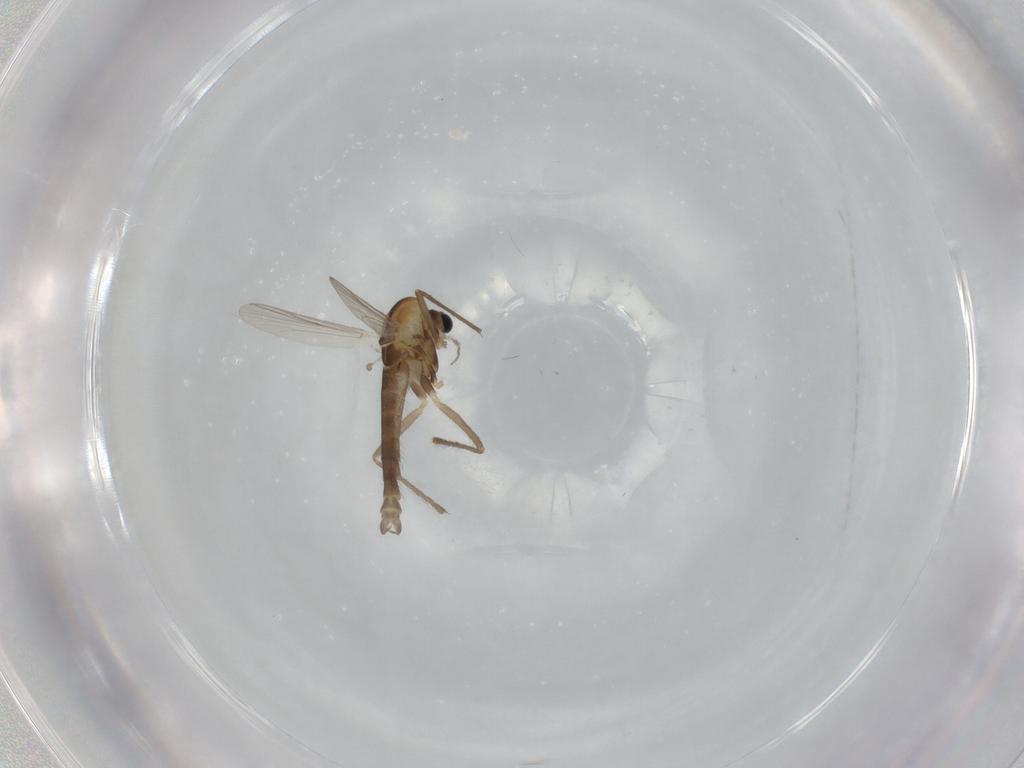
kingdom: Animalia
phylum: Arthropoda
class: Insecta
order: Diptera
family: Chironomidae
